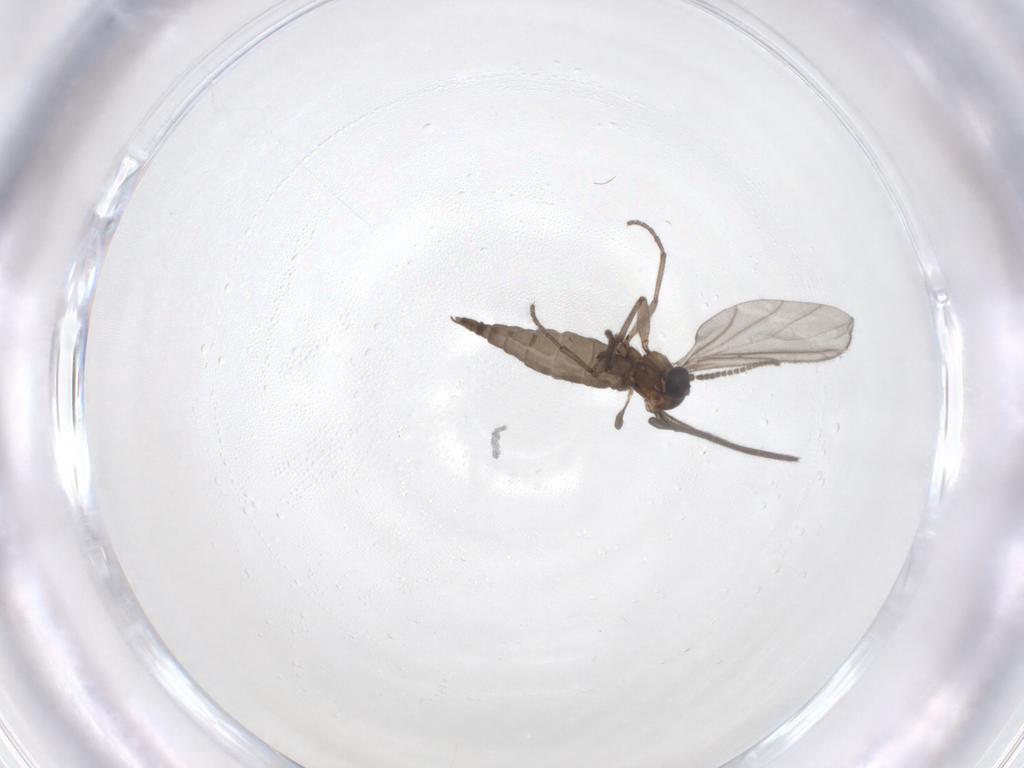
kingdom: Animalia
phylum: Arthropoda
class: Insecta
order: Diptera
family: Sciaridae
